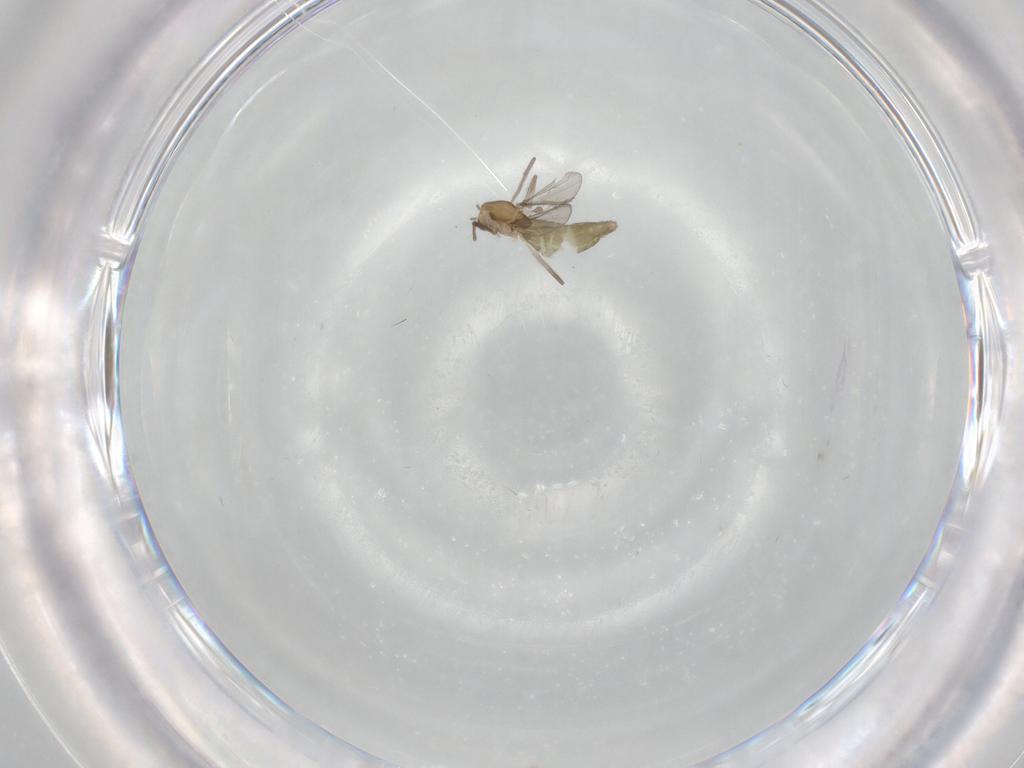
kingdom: Animalia
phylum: Arthropoda
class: Insecta
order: Diptera
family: Chironomidae
